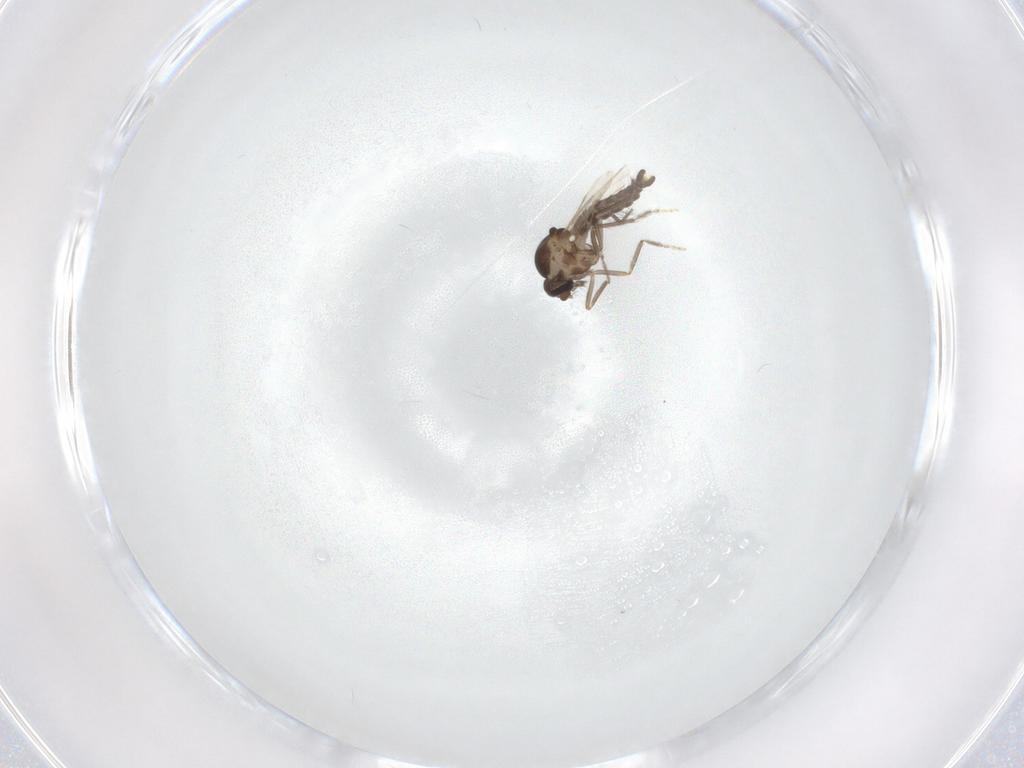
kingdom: Animalia
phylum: Arthropoda
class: Insecta
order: Diptera
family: Ceratopogonidae
